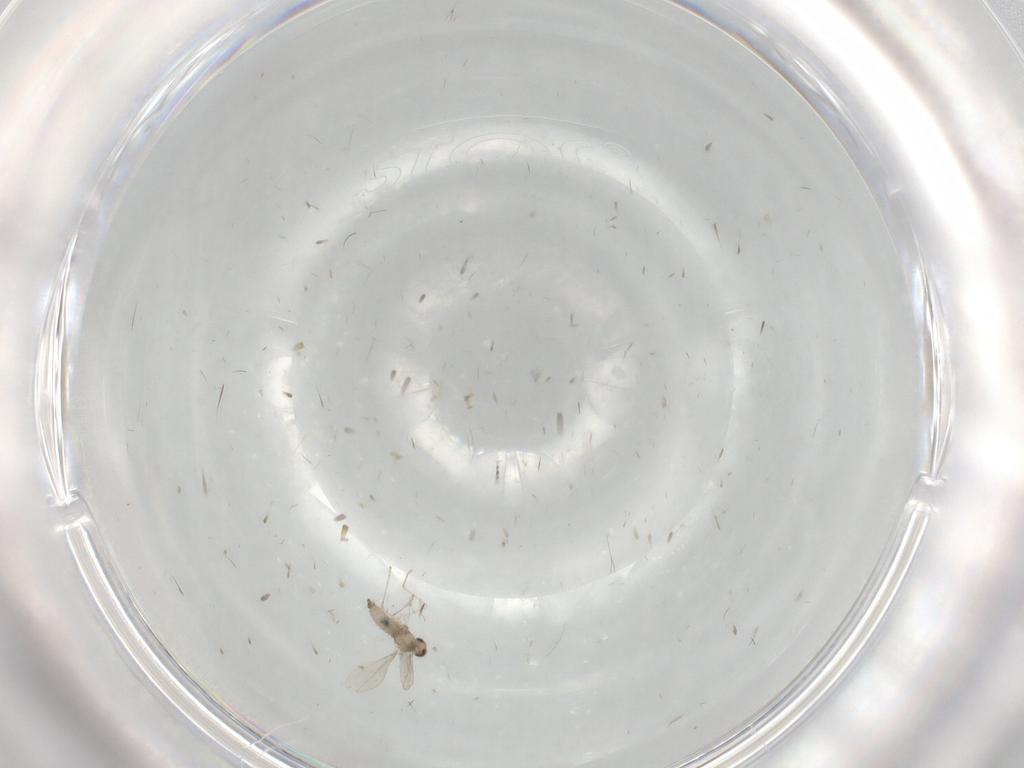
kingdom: Animalia
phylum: Arthropoda
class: Insecta
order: Diptera
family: Cecidomyiidae
